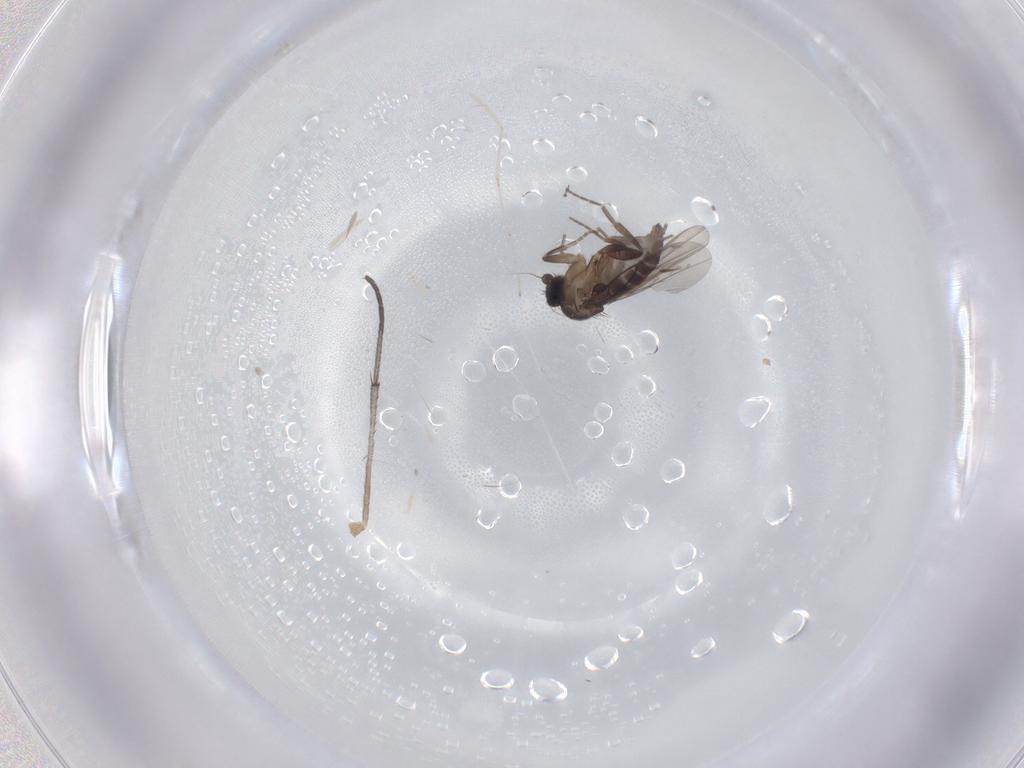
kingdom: Animalia
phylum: Arthropoda
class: Insecta
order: Diptera
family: Sciaridae
